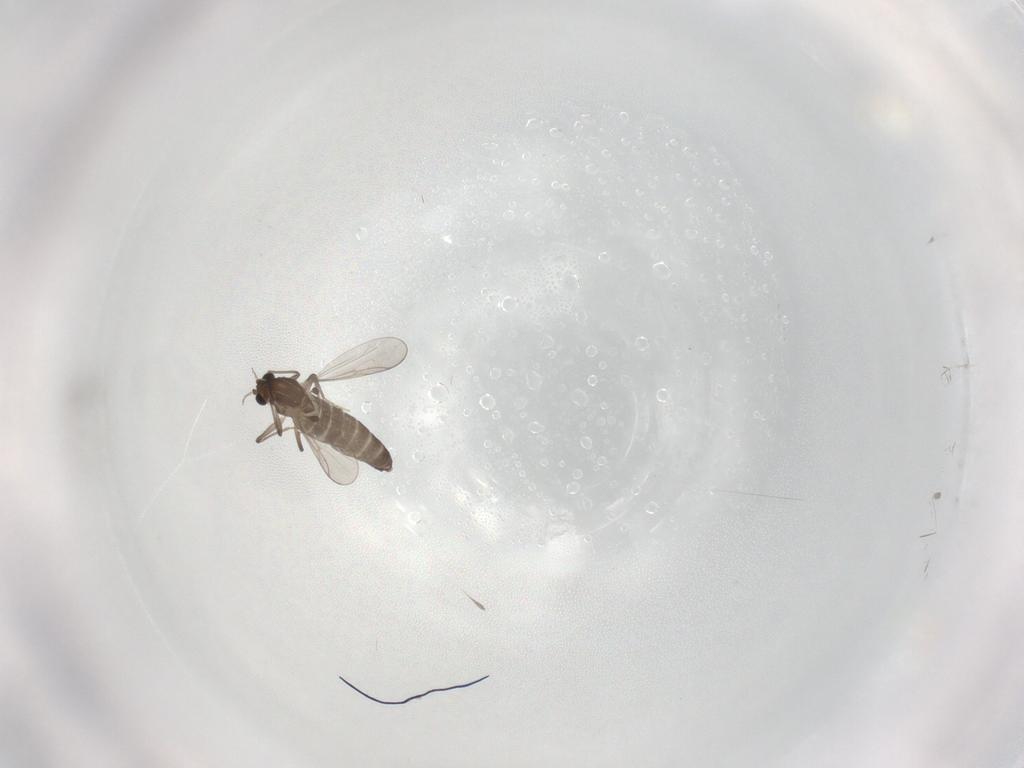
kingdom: Animalia
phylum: Arthropoda
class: Insecta
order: Diptera
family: Chironomidae
